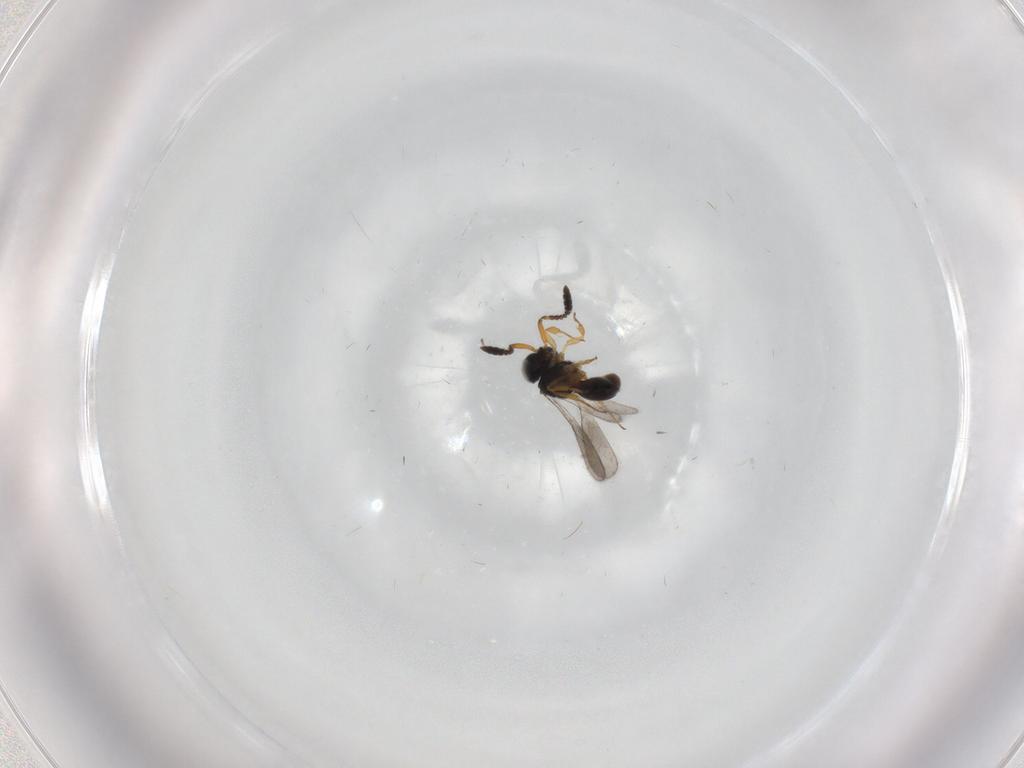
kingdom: Animalia
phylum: Arthropoda
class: Insecta
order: Hymenoptera
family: Scelionidae
